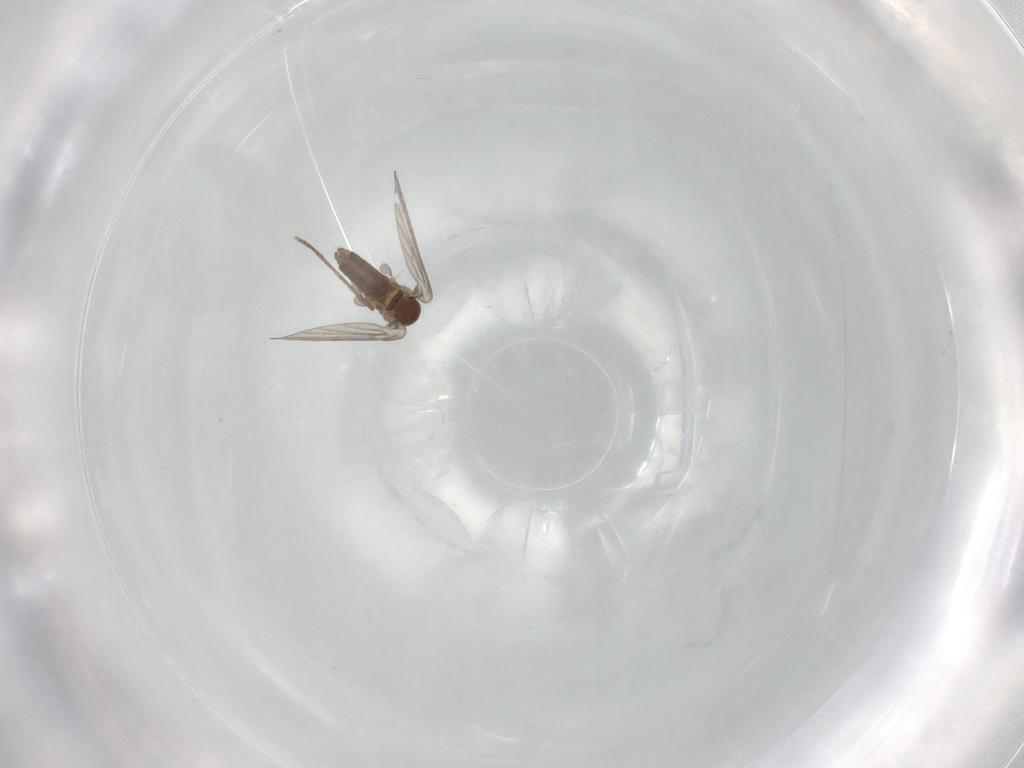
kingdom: Animalia
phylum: Arthropoda
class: Insecta
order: Diptera
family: Psychodidae
